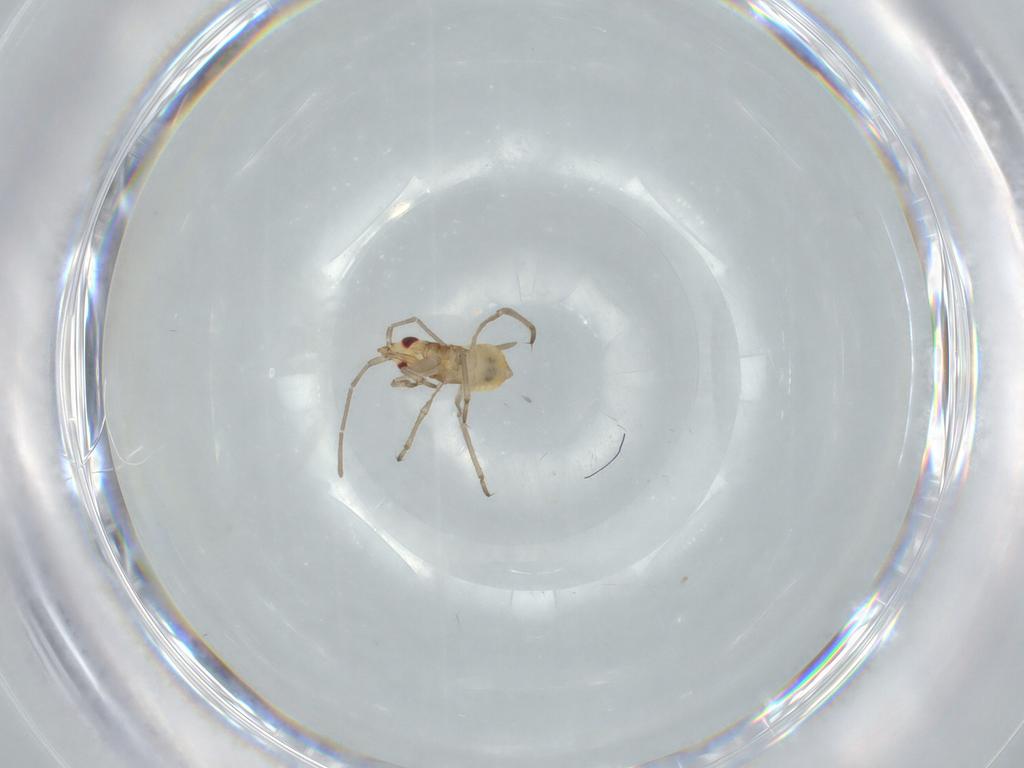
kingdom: Animalia
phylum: Arthropoda
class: Insecta
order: Hemiptera
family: Nabidae
